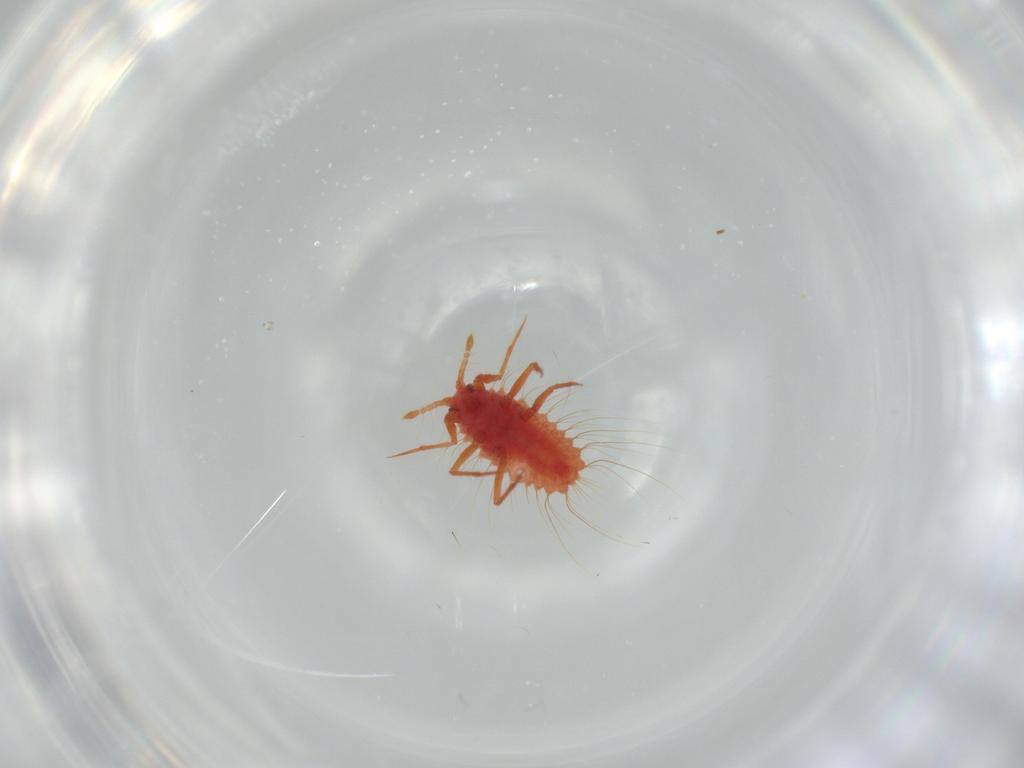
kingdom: Animalia
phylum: Arthropoda
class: Insecta
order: Hemiptera
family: Monophlebidae
